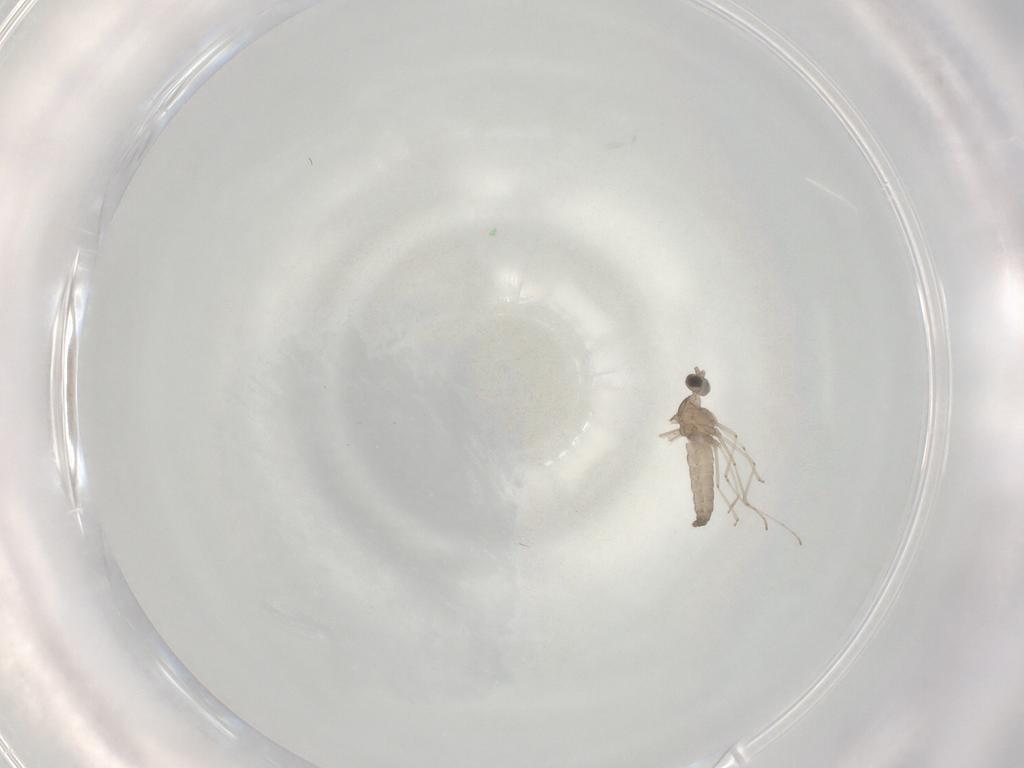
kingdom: Animalia
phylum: Arthropoda
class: Insecta
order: Diptera
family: Cecidomyiidae
